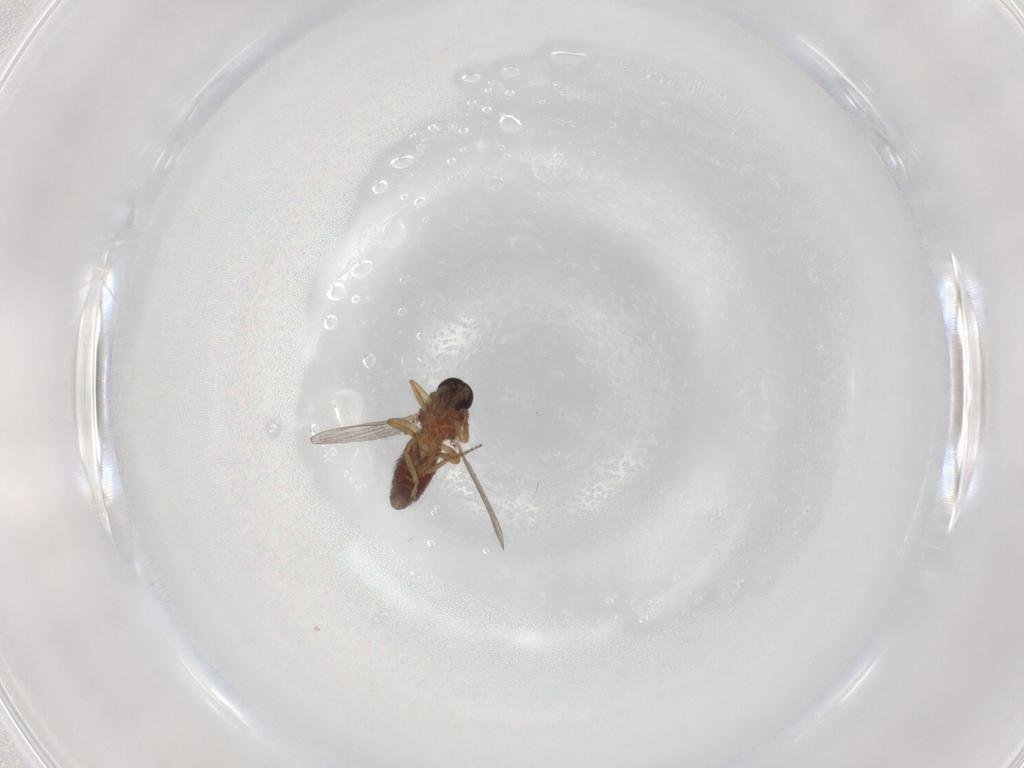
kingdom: Animalia
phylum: Arthropoda
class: Insecta
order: Diptera
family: Ceratopogonidae
